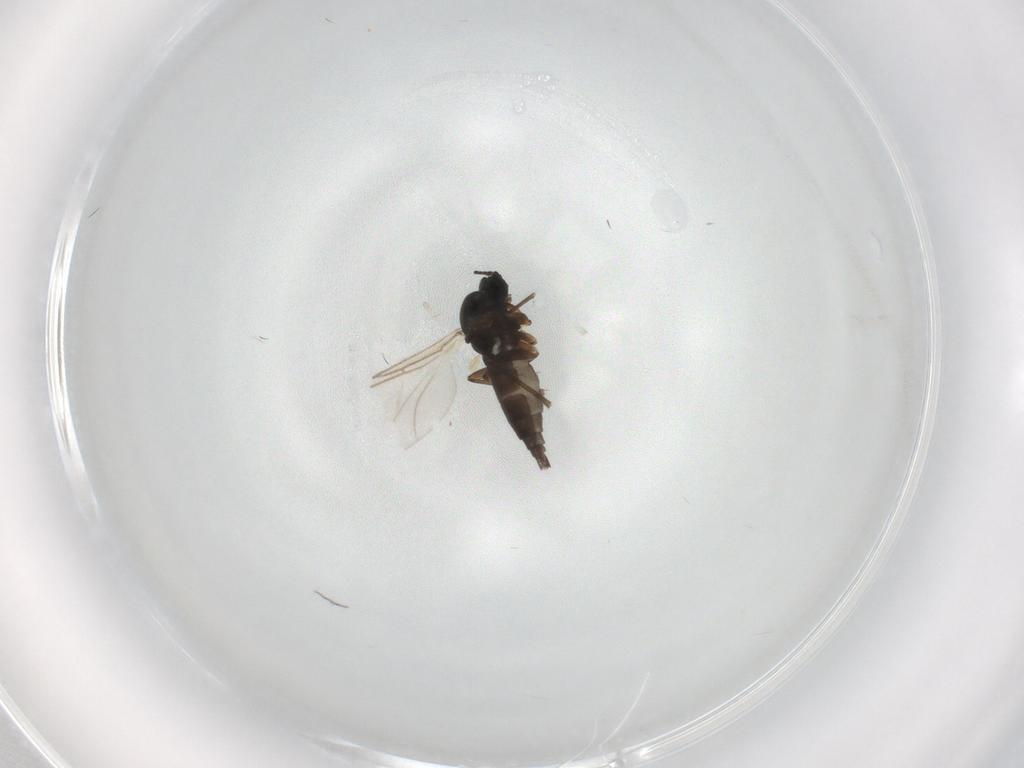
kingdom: Animalia
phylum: Arthropoda
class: Insecta
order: Diptera
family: Sciaridae
